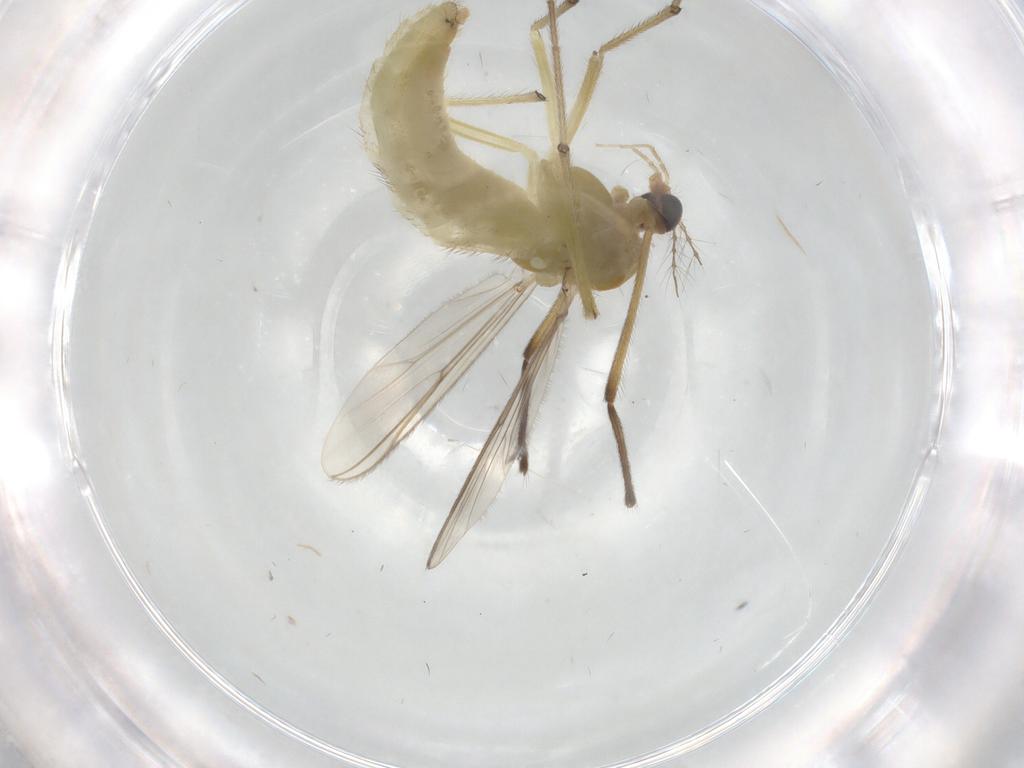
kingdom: Animalia
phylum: Arthropoda
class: Insecta
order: Diptera
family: Chironomidae
